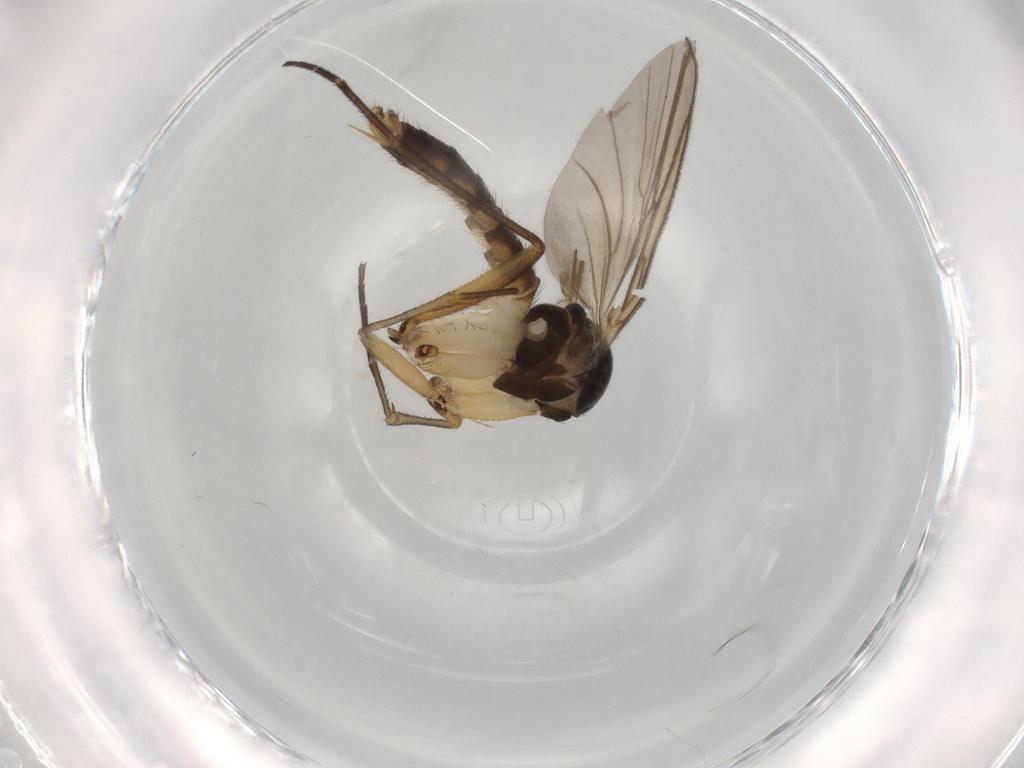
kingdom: Animalia
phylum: Arthropoda
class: Insecta
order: Diptera
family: Mycetophilidae
